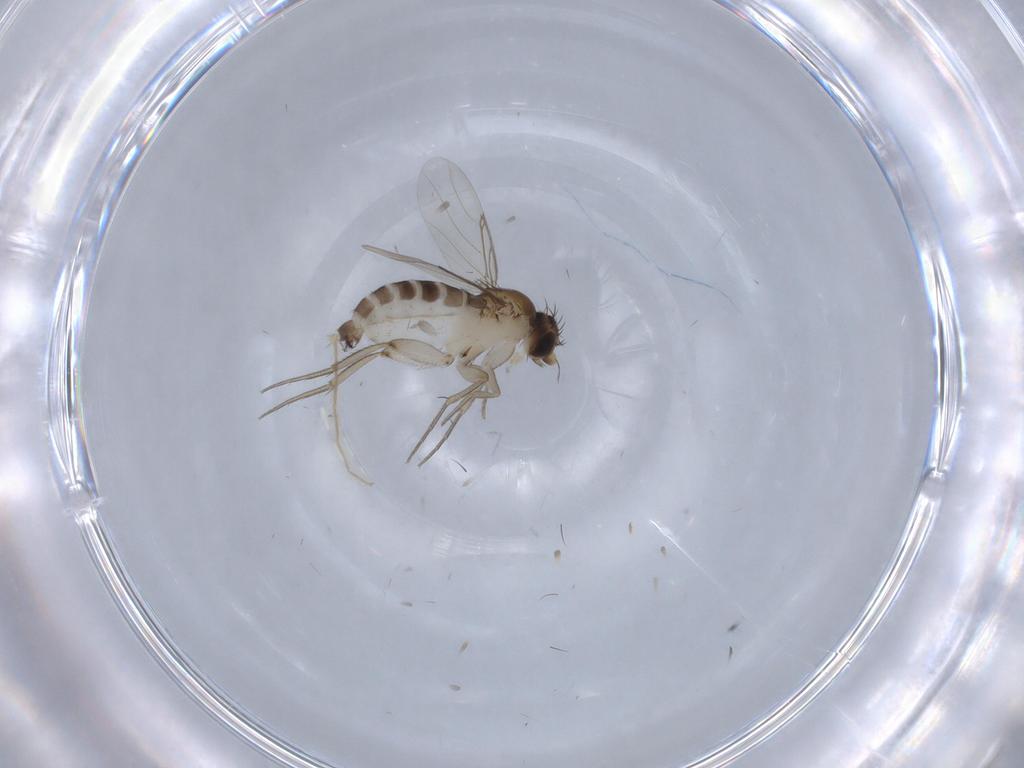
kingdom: Animalia
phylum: Arthropoda
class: Insecta
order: Diptera
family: Phoridae
